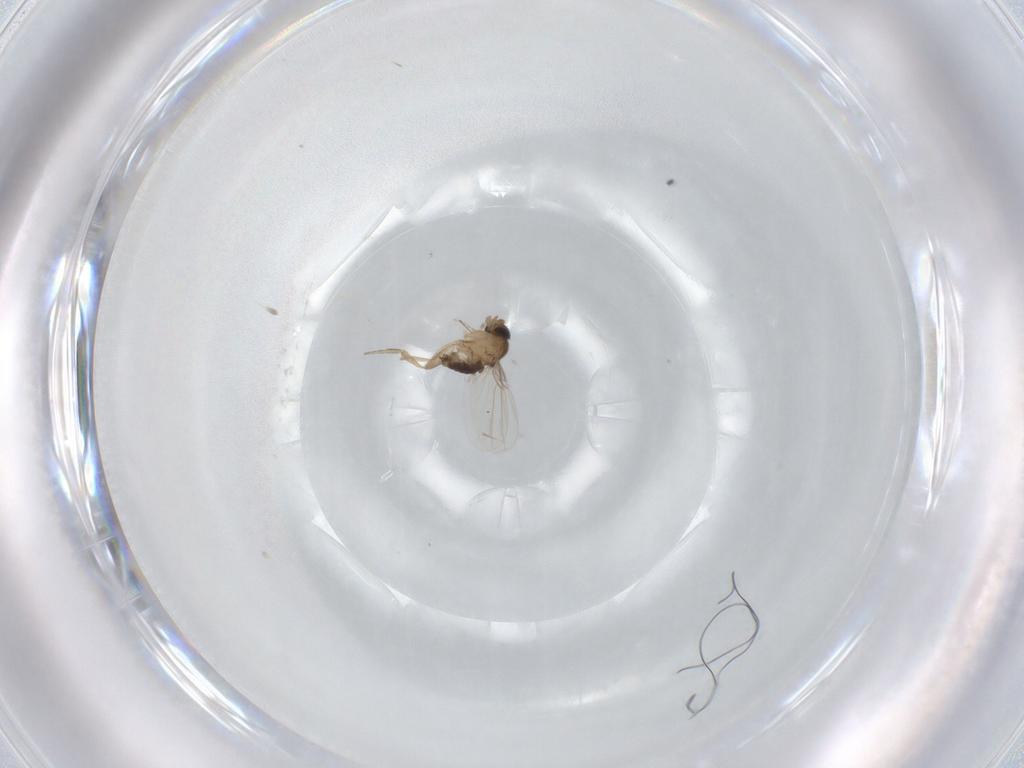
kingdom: Animalia
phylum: Arthropoda
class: Insecta
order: Diptera
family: Phoridae
